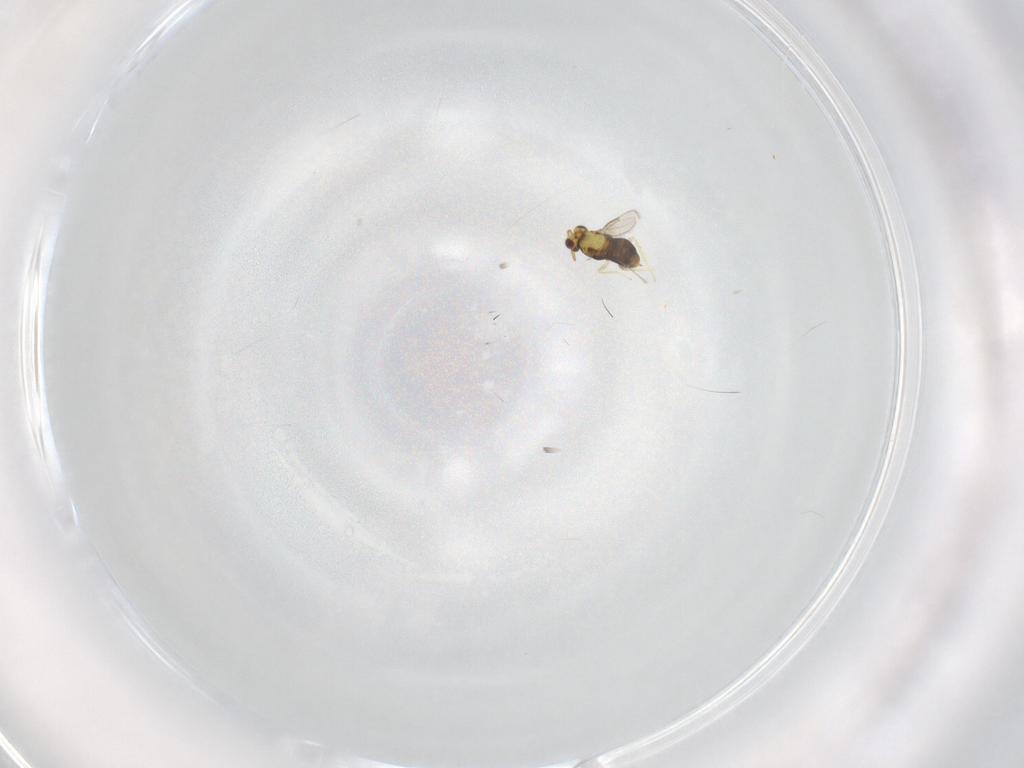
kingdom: Animalia
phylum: Arthropoda
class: Insecta
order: Hymenoptera
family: Aphelinidae
